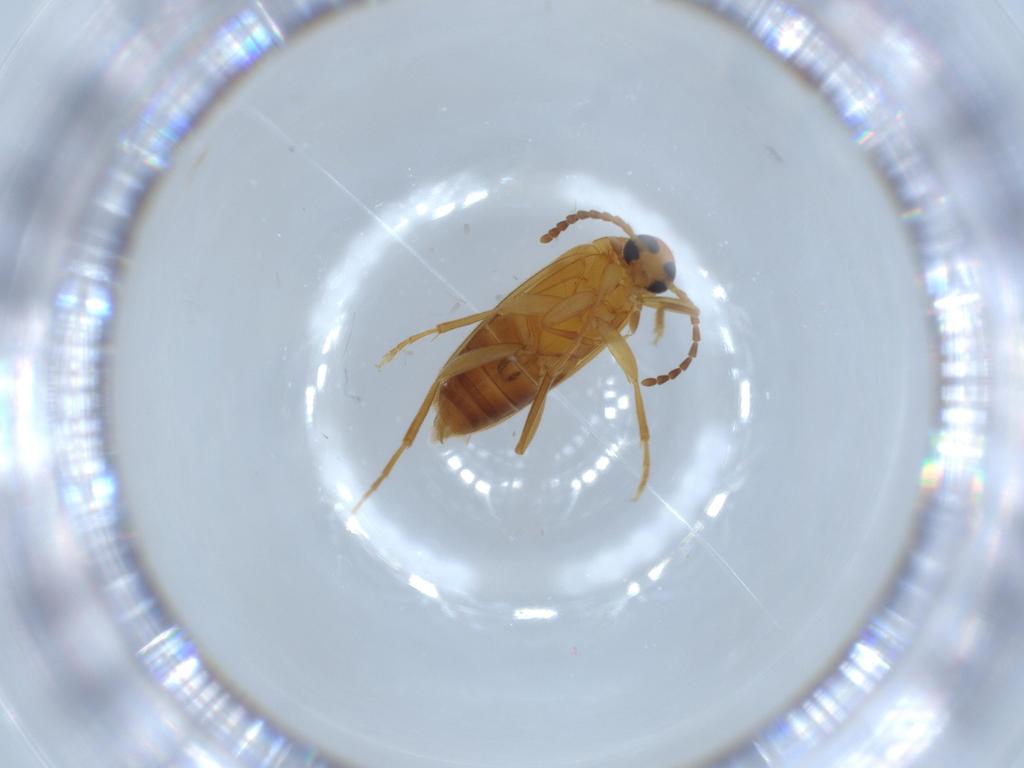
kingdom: Animalia
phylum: Arthropoda
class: Insecta
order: Coleoptera
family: Scraptiidae
